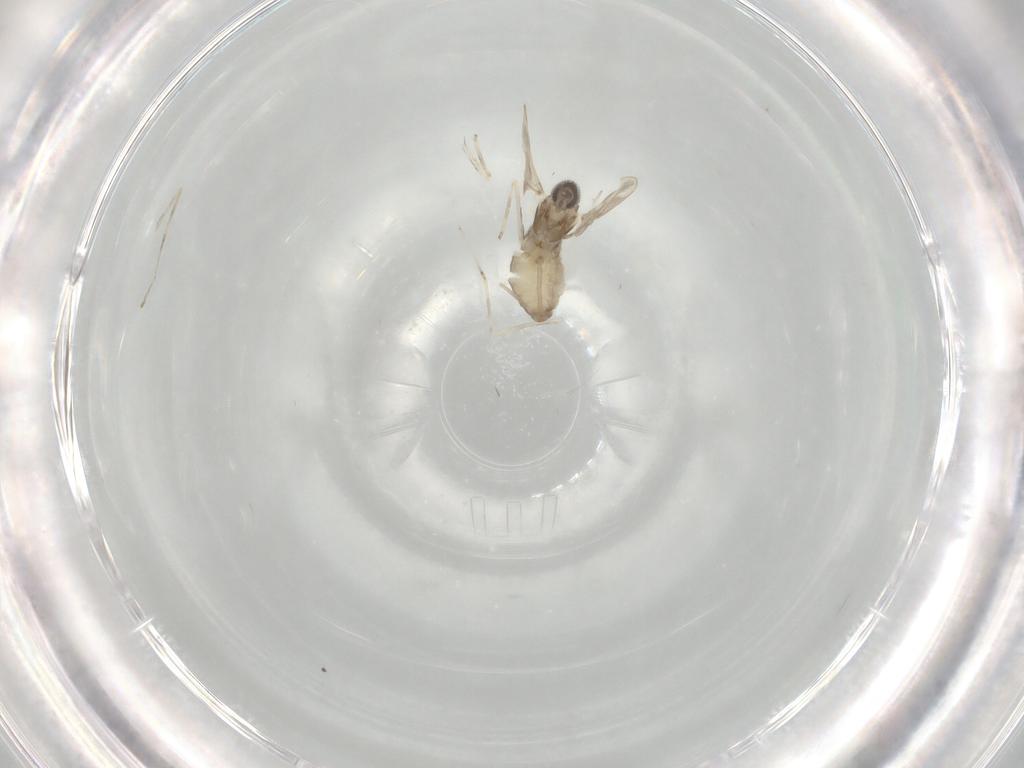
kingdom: Animalia
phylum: Arthropoda
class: Insecta
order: Diptera
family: Cecidomyiidae
